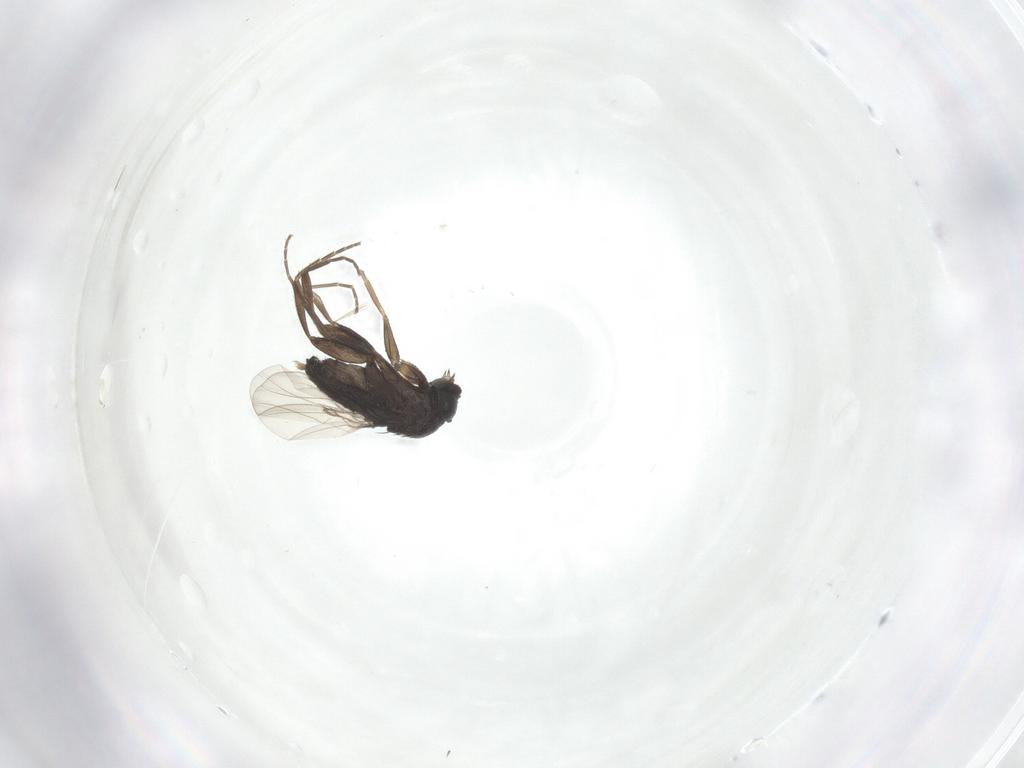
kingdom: Animalia
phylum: Arthropoda
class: Insecta
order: Diptera
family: Phoridae
